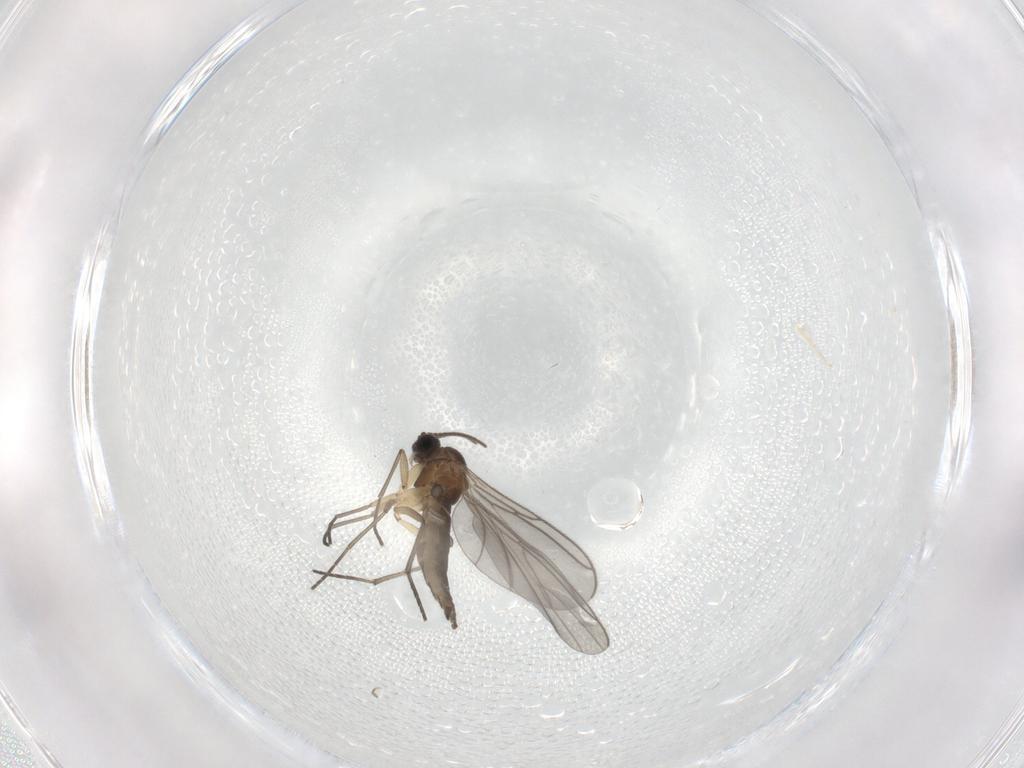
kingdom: Animalia
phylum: Arthropoda
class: Insecta
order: Diptera
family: Sciaridae
